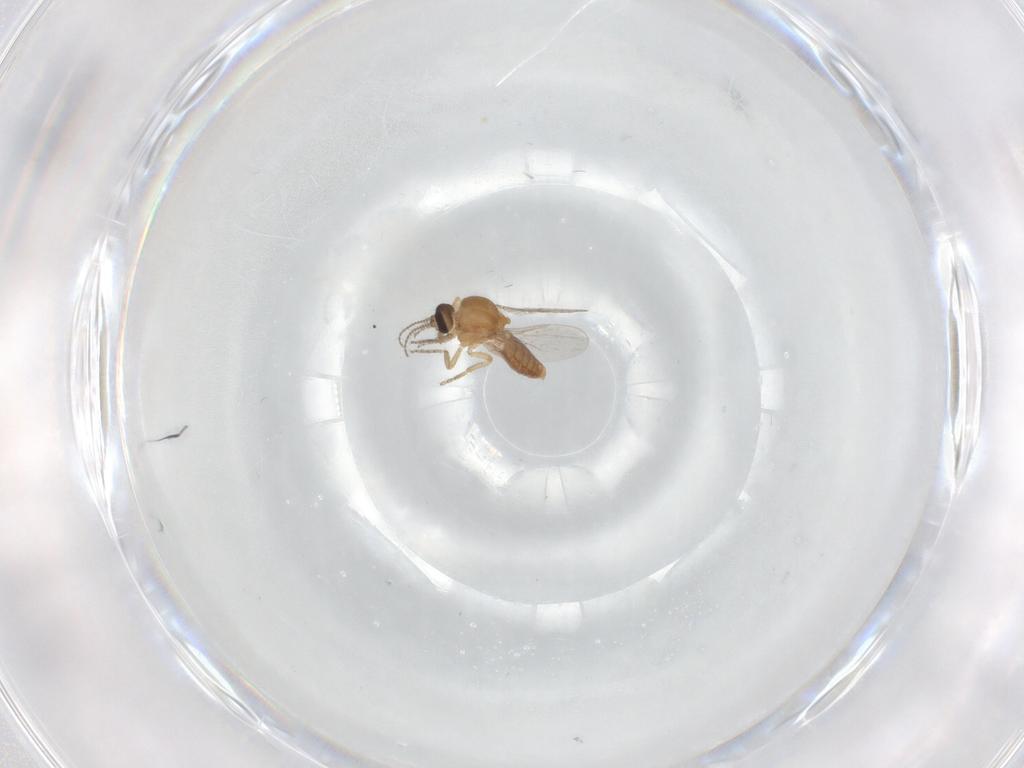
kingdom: Animalia
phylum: Arthropoda
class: Insecta
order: Diptera
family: Ceratopogonidae
